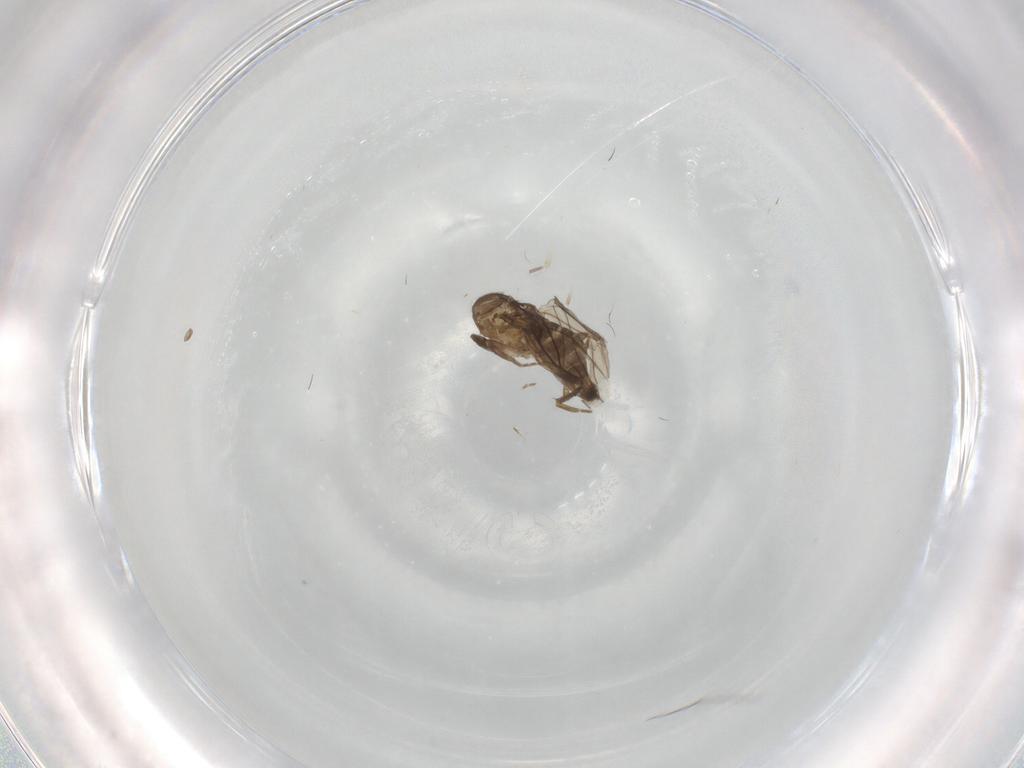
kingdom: Animalia
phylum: Arthropoda
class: Insecta
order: Diptera
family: Phoridae
